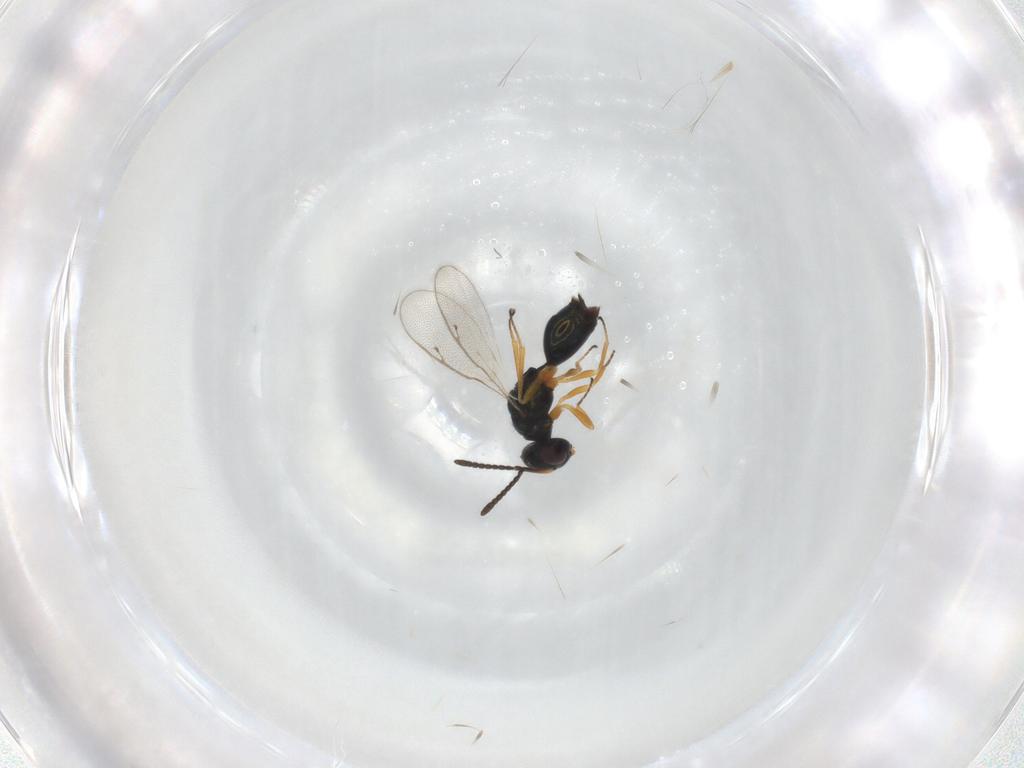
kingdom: Animalia
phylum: Arthropoda
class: Insecta
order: Hymenoptera
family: Pteromalidae
